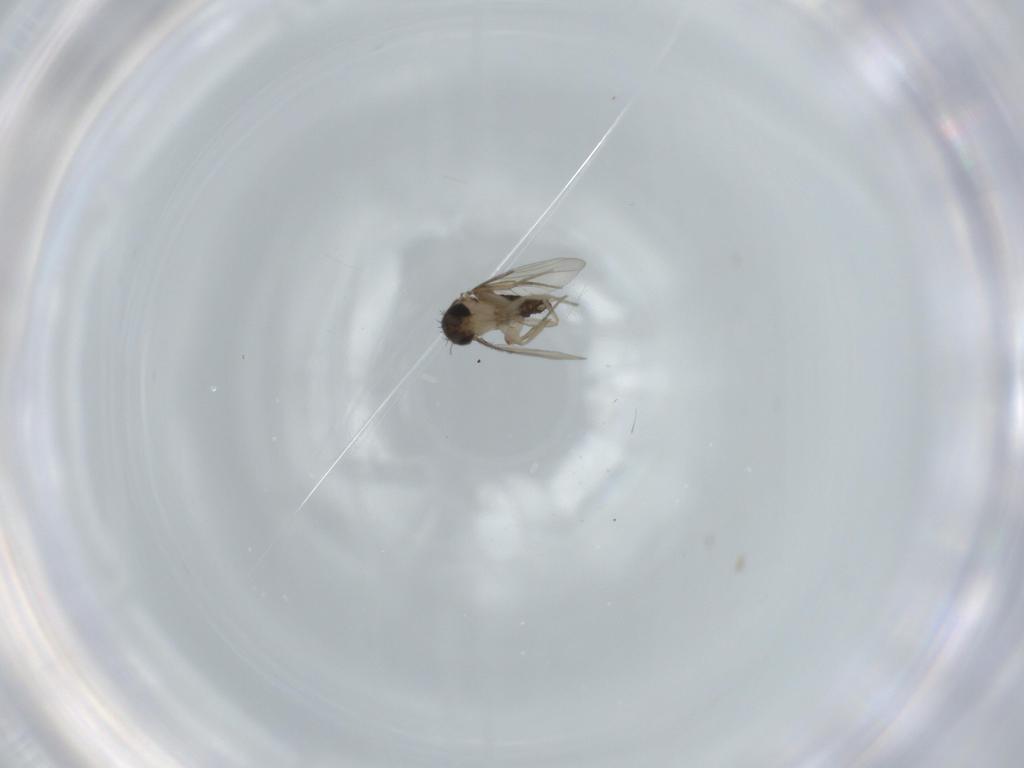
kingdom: Animalia
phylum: Arthropoda
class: Insecta
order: Diptera
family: Phoridae
